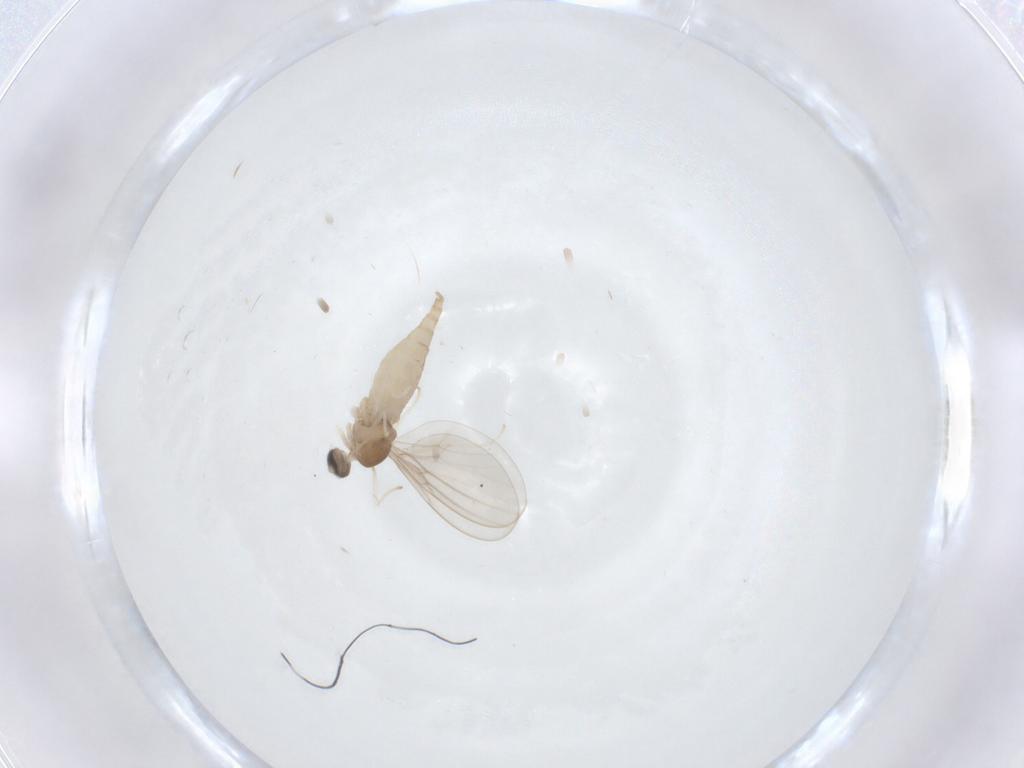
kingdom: Animalia
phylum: Arthropoda
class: Insecta
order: Diptera
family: Cecidomyiidae
